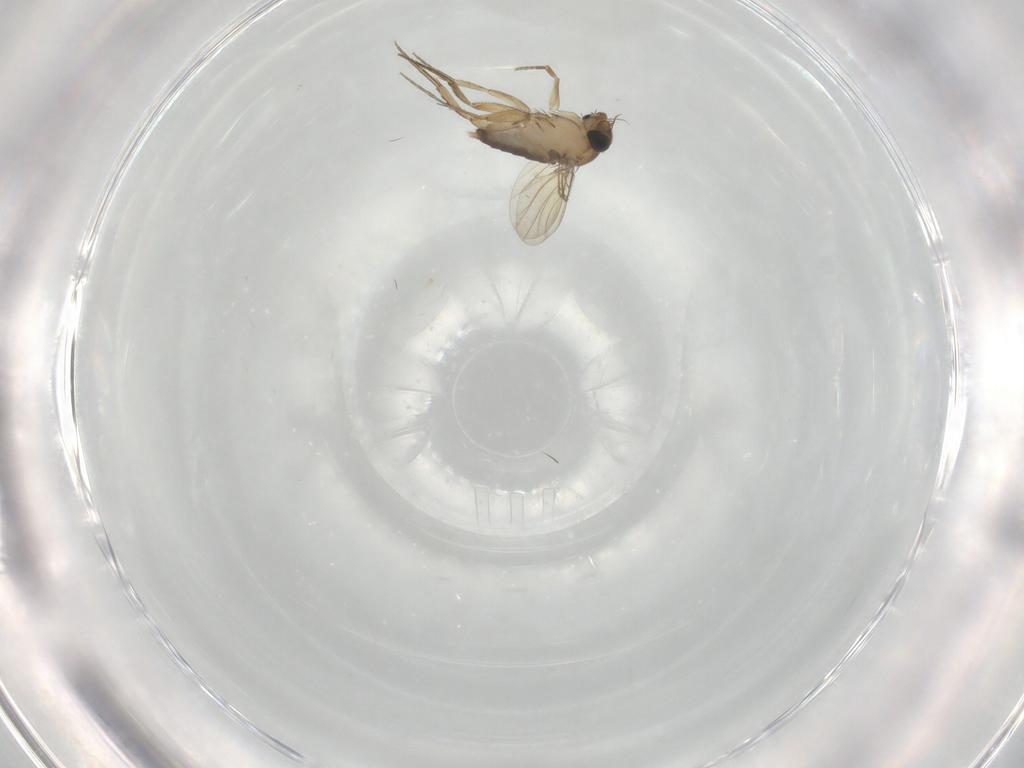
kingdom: Animalia
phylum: Arthropoda
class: Insecta
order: Diptera
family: Phoridae
